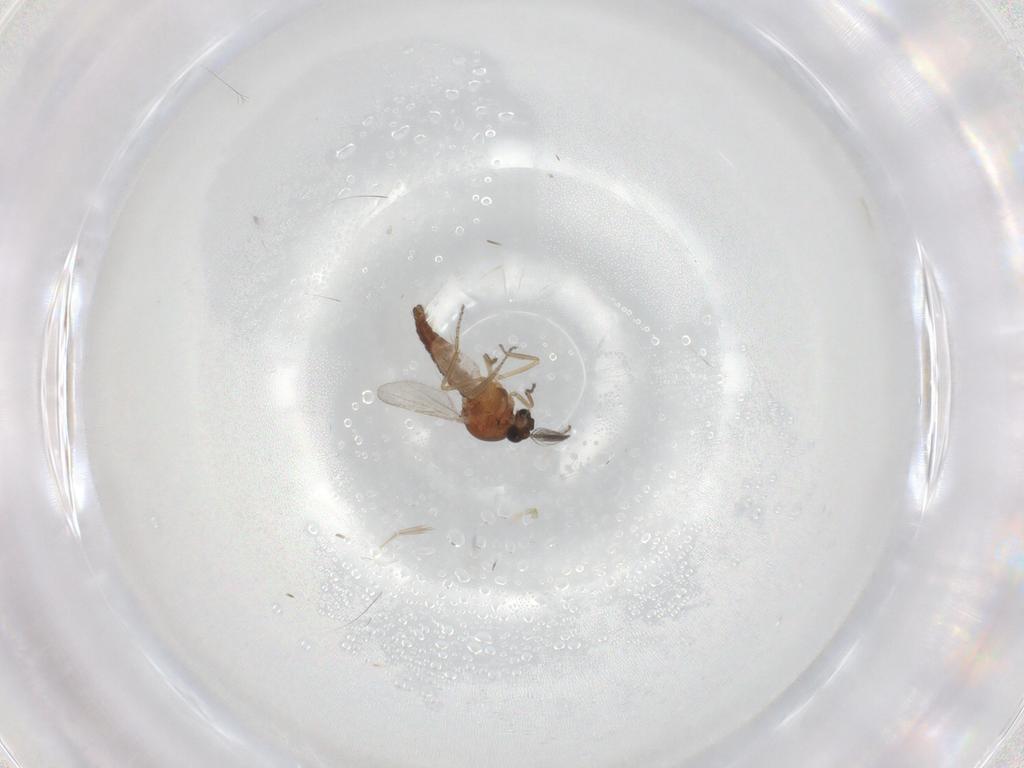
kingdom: Animalia
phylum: Arthropoda
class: Insecta
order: Diptera
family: Ceratopogonidae
